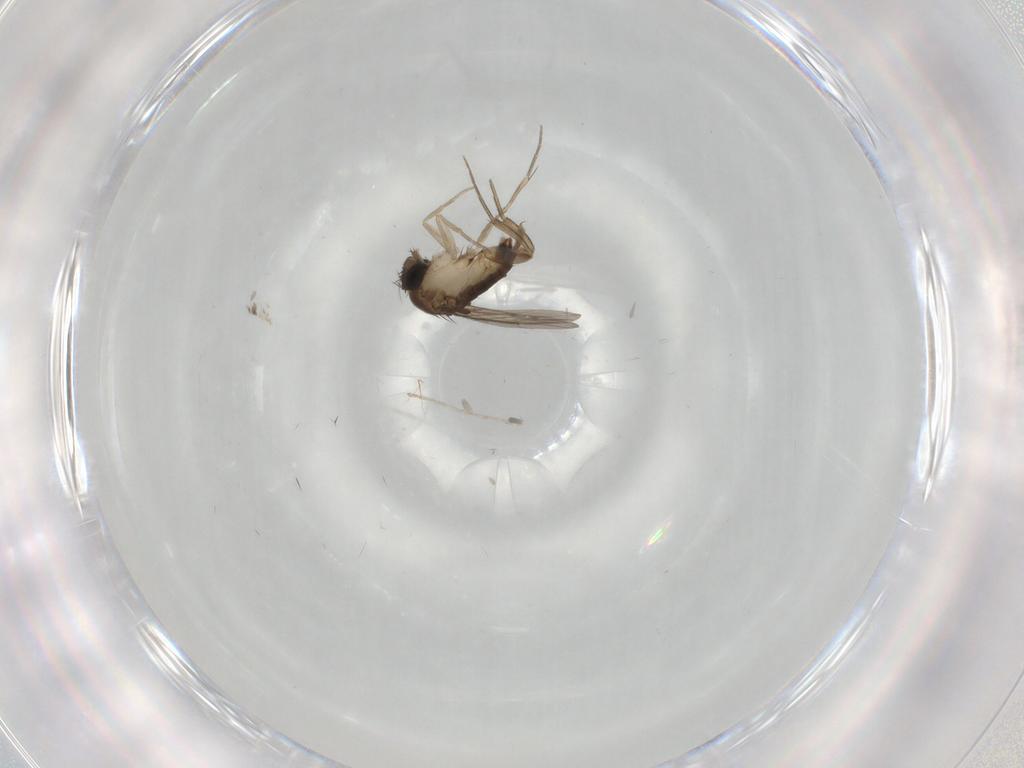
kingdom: Animalia
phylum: Arthropoda
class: Insecta
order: Diptera
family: Phoridae
